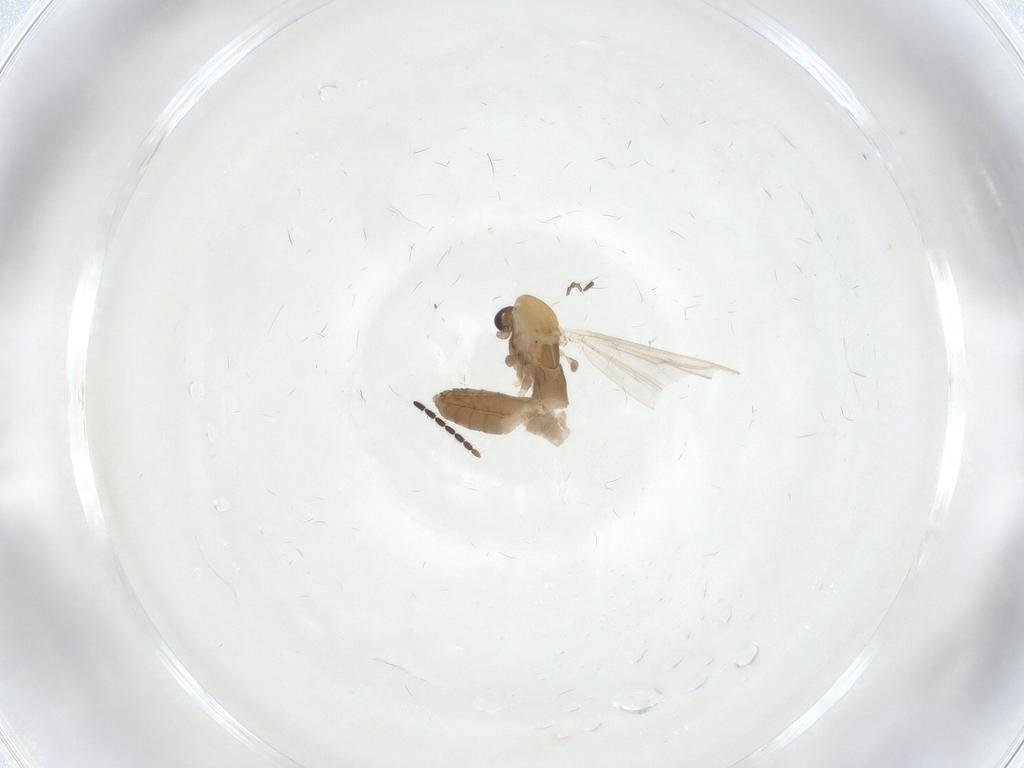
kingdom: Animalia
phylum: Arthropoda
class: Insecta
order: Diptera
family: Chironomidae
